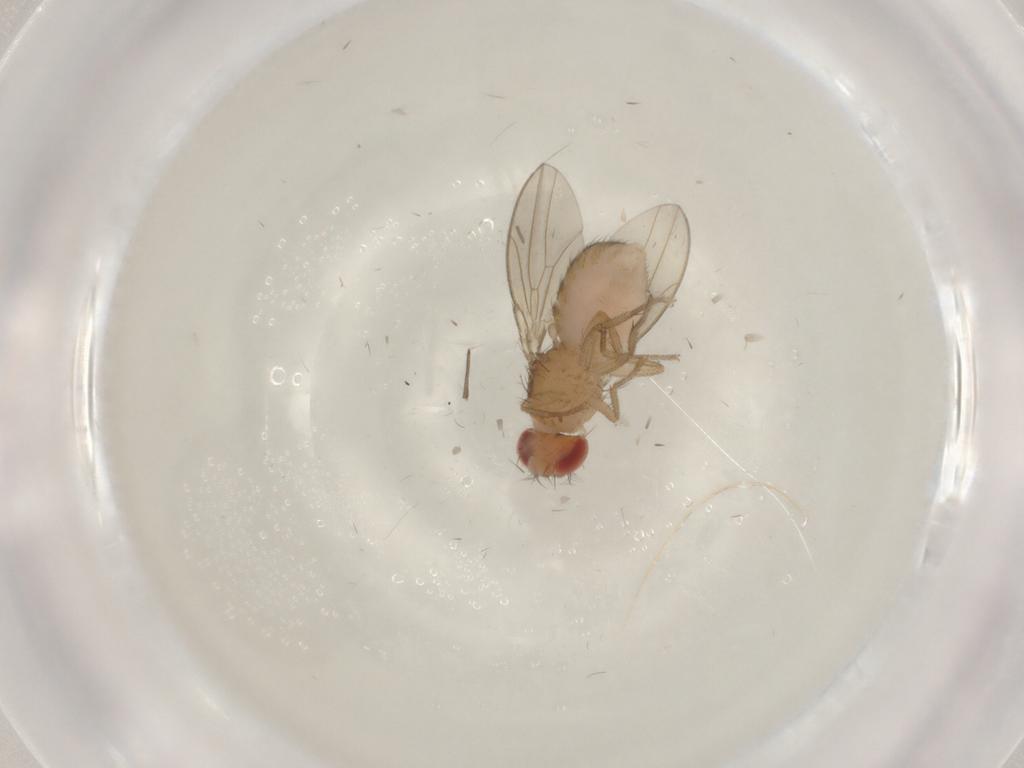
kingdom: Animalia
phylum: Arthropoda
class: Insecta
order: Diptera
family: Drosophilidae
